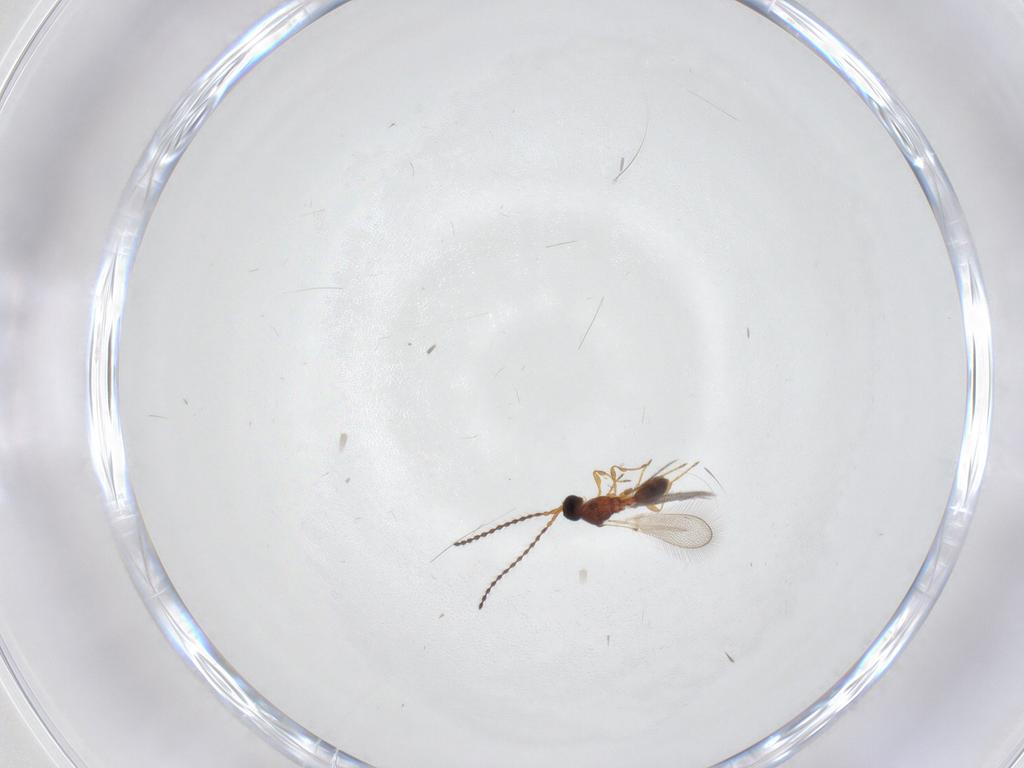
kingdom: Animalia
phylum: Arthropoda
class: Insecta
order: Hymenoptera
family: Diapriidae
